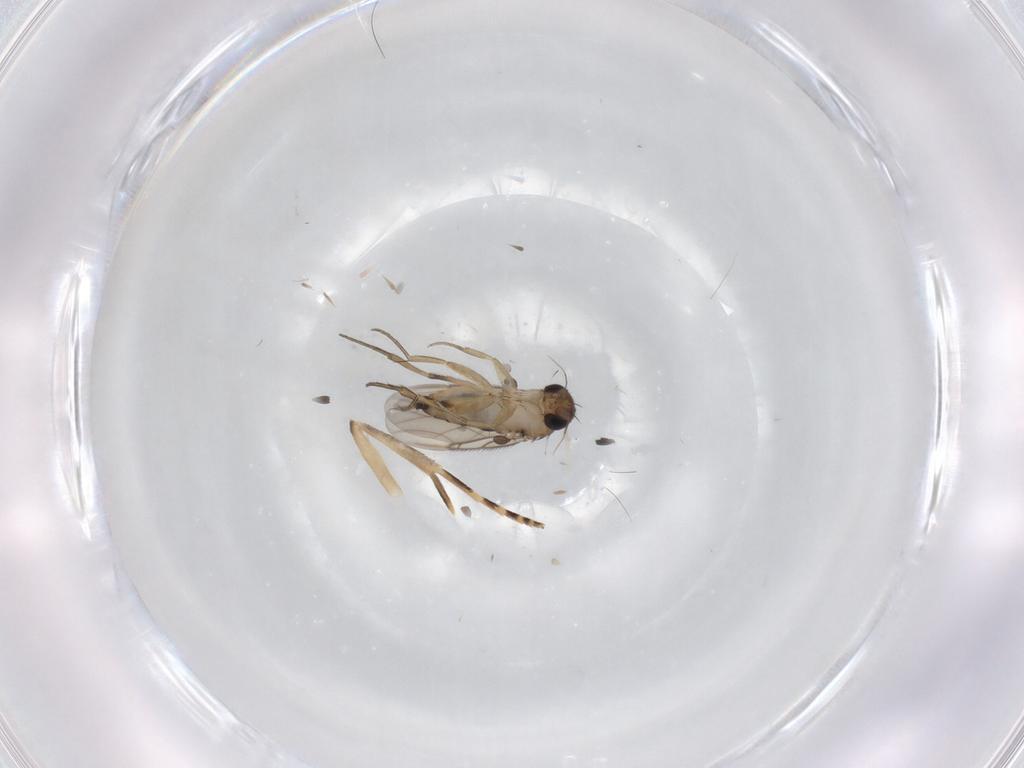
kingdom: Animalia
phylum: Arthropoda
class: Insecta
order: Diptera
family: Phoridae
